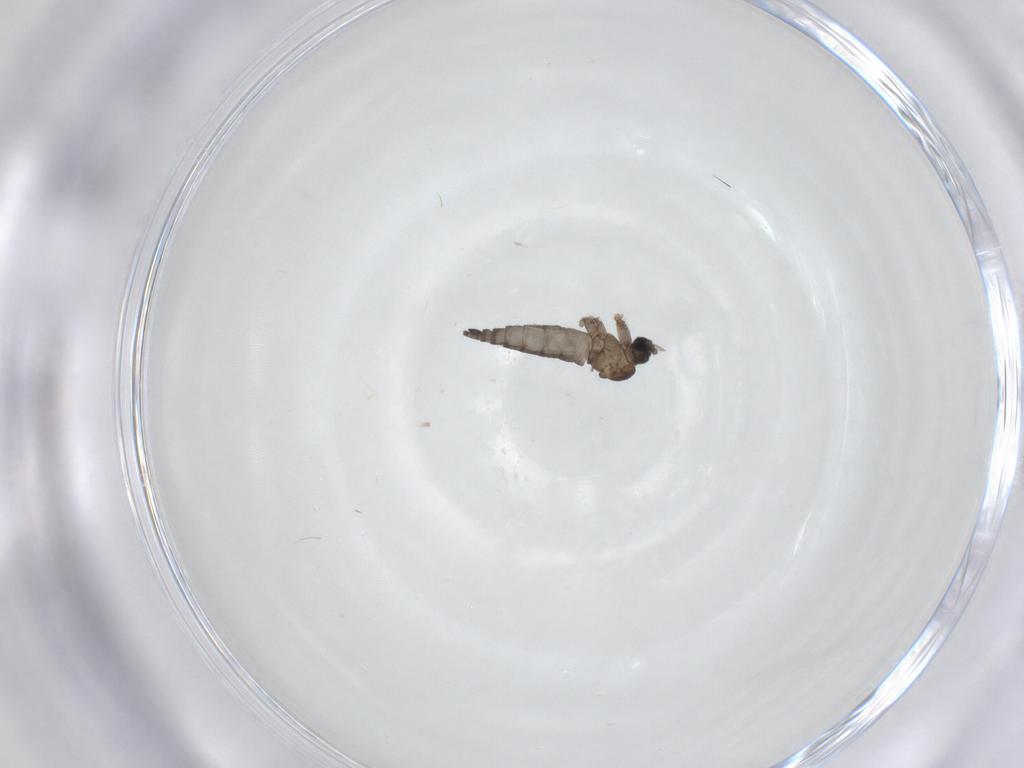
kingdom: Animalia
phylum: Arthropoda
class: Insecta
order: Diptera
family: Sciaridae
